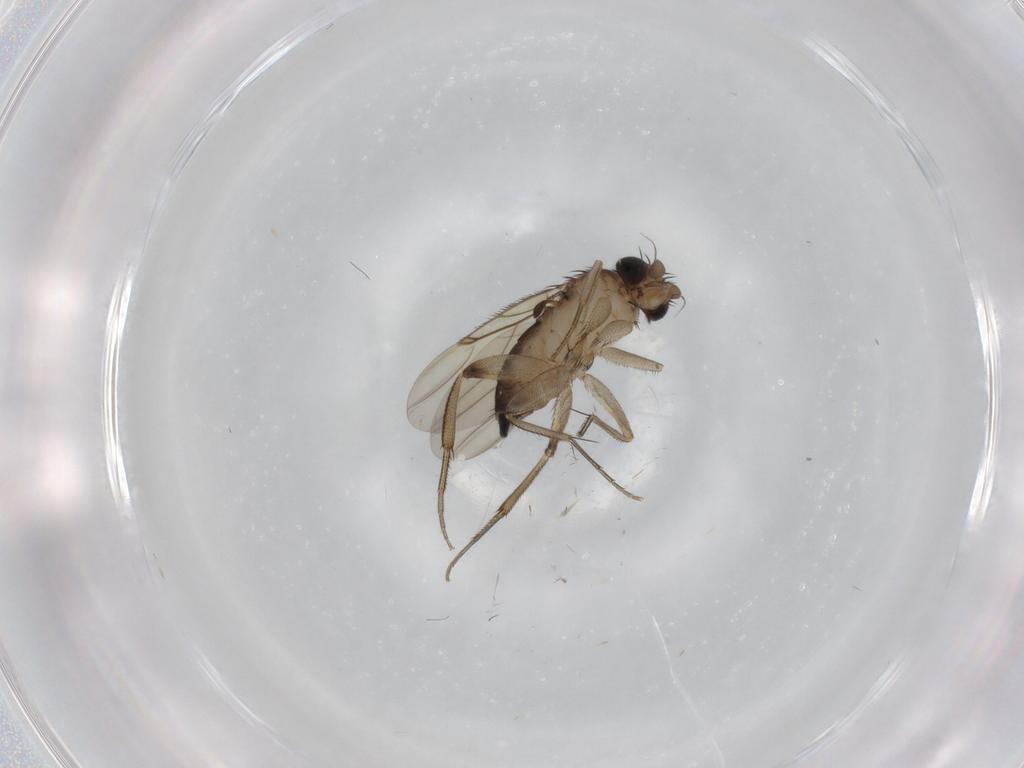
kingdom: Animalia
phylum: Arthropoda
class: Insecta
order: Diptera
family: Phoridae
